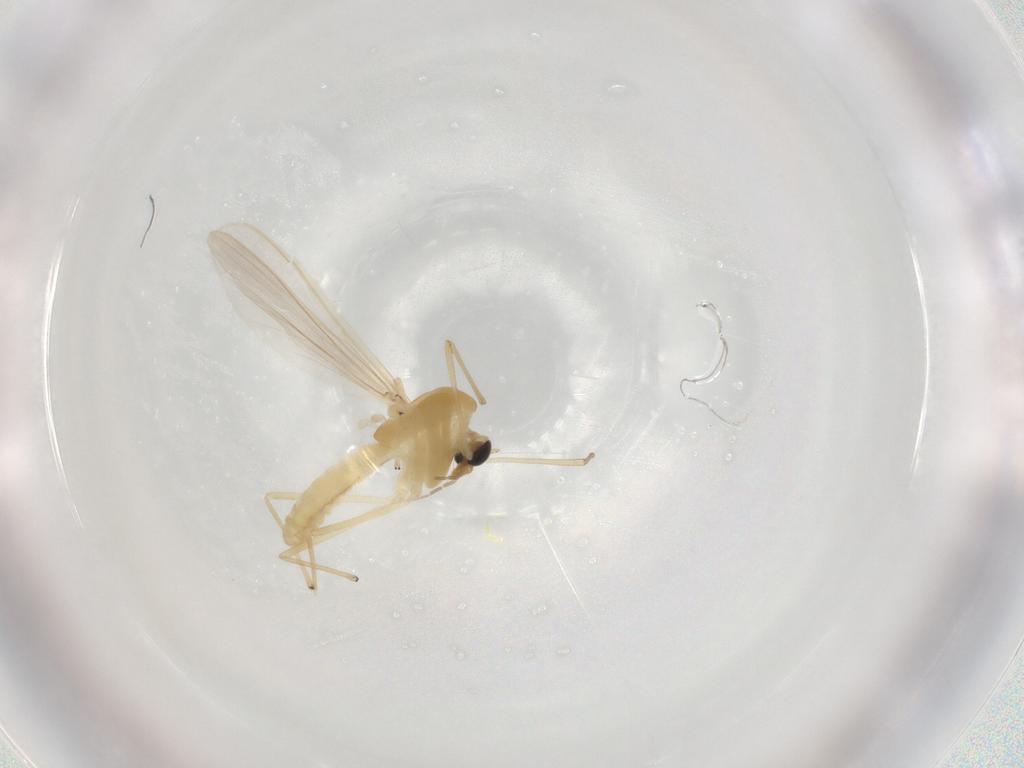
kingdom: Animalia
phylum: Arthropoda
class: Insecta
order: Diptera
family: Chironomidae
